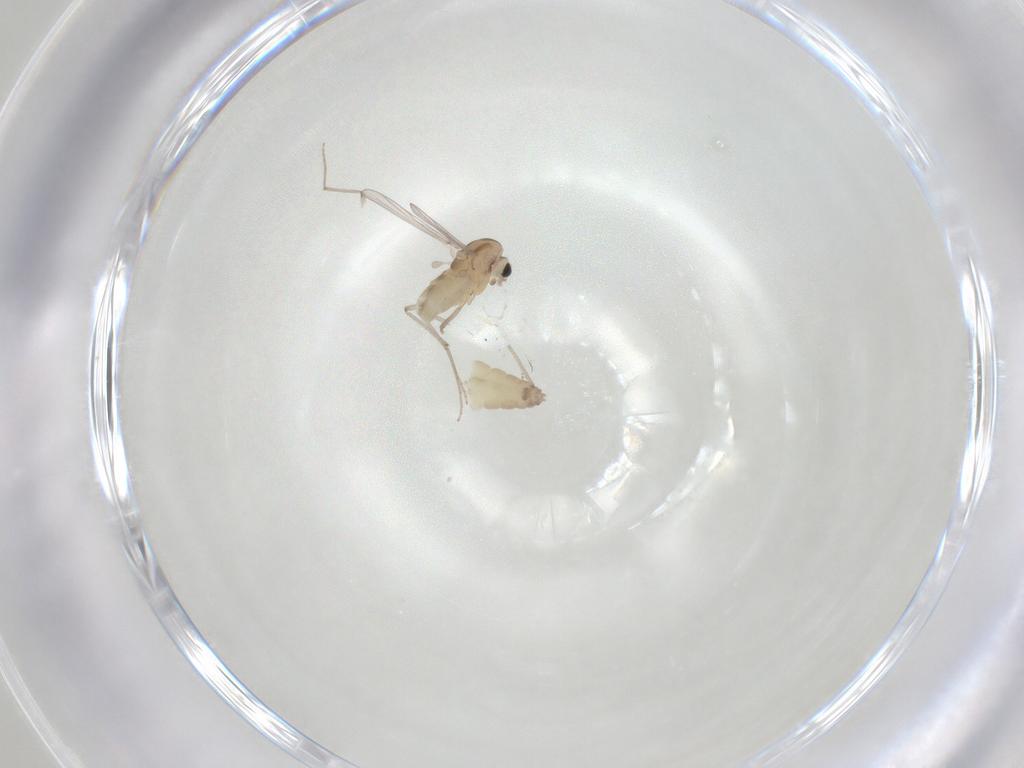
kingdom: Animalia
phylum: Arthropoda
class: Insecta
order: Diptera
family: Chironomidae
